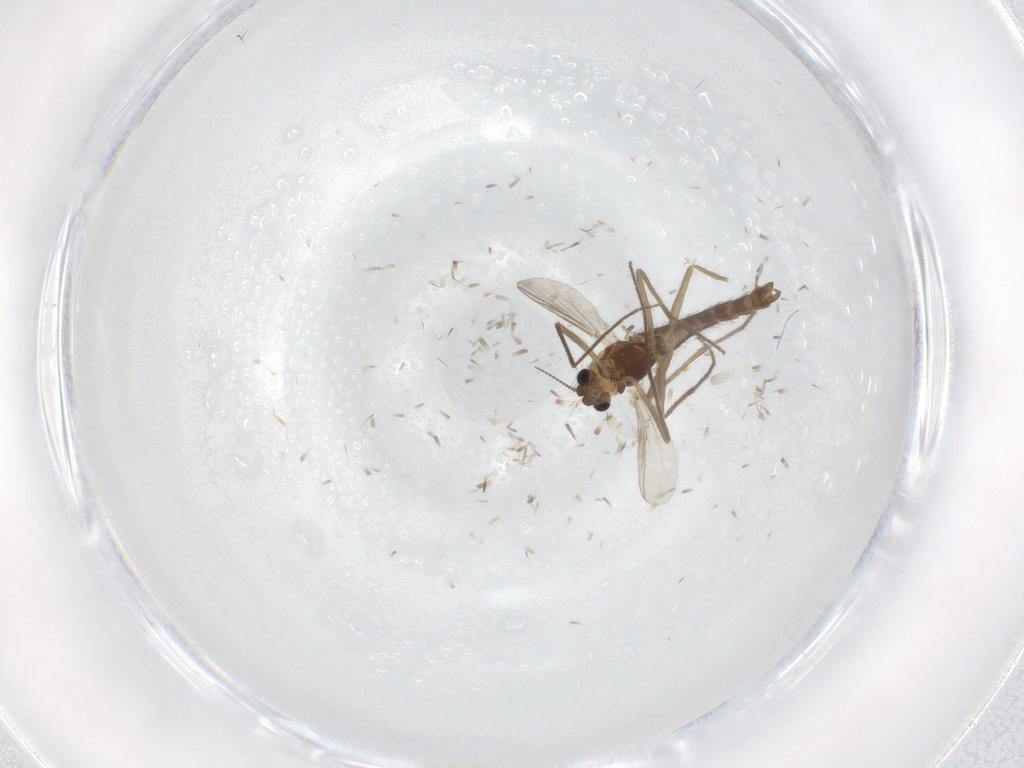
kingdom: Animalia
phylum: Arthropoda
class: Insecta
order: Diptera
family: Chironomidae
